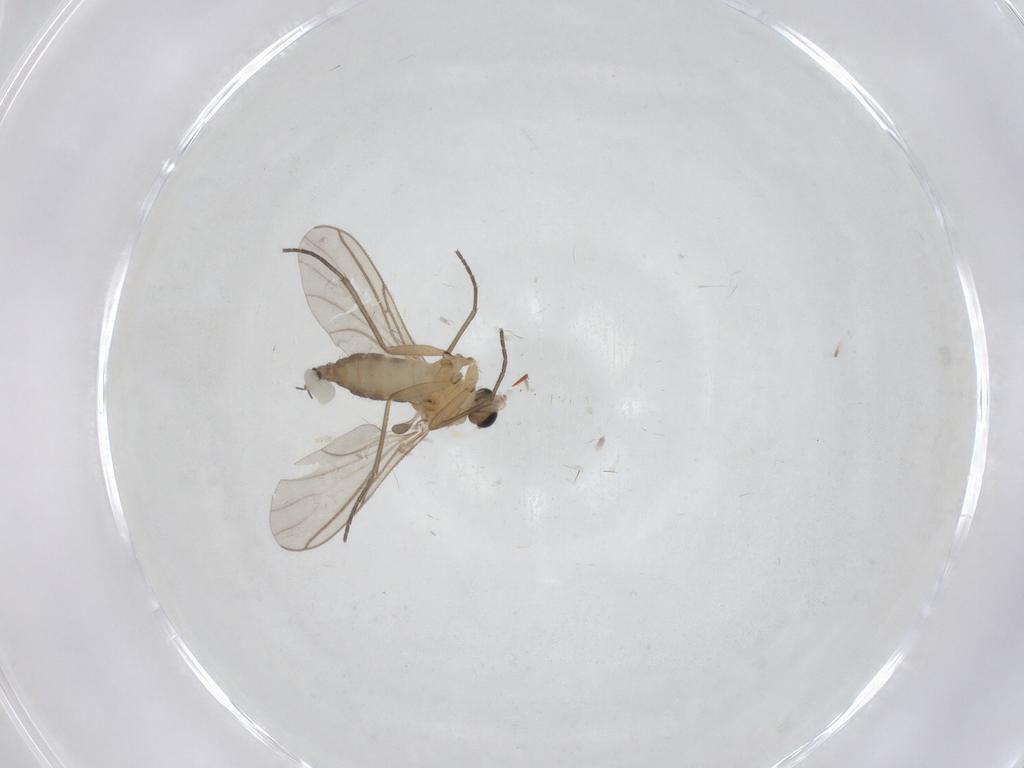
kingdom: Animalia
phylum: Arthropoda
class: Insecta
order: Diptera
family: Sciaridae
